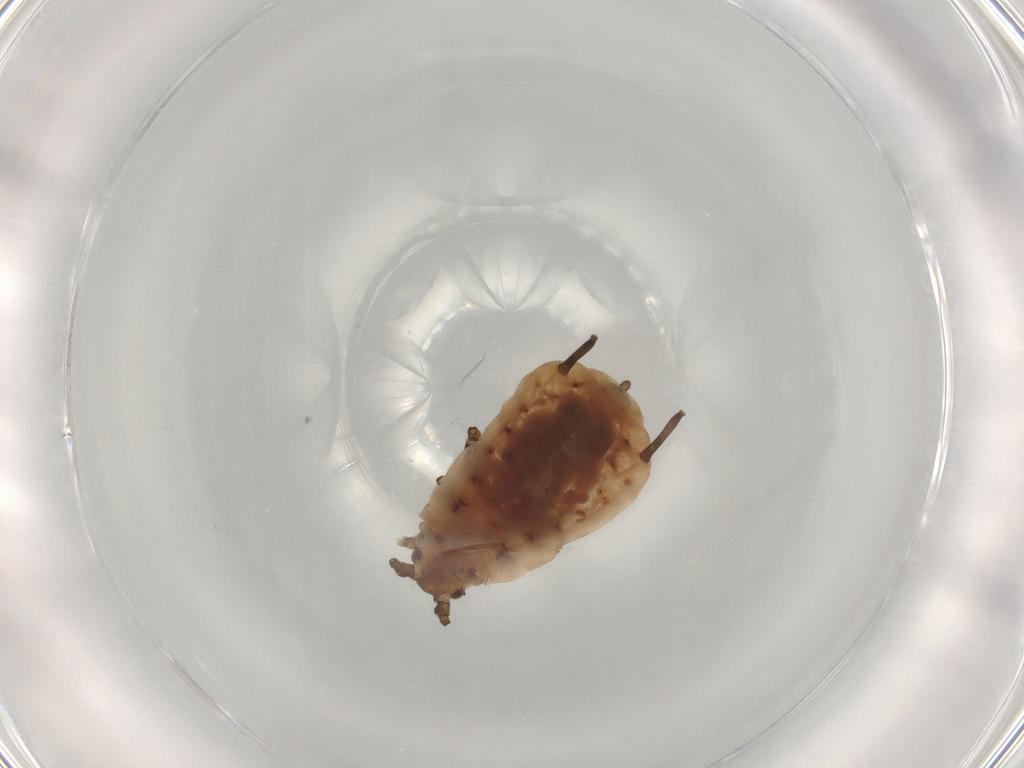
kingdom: Animalia
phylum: Arthropoda
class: Insecta
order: Hemiptera
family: Aphididae
